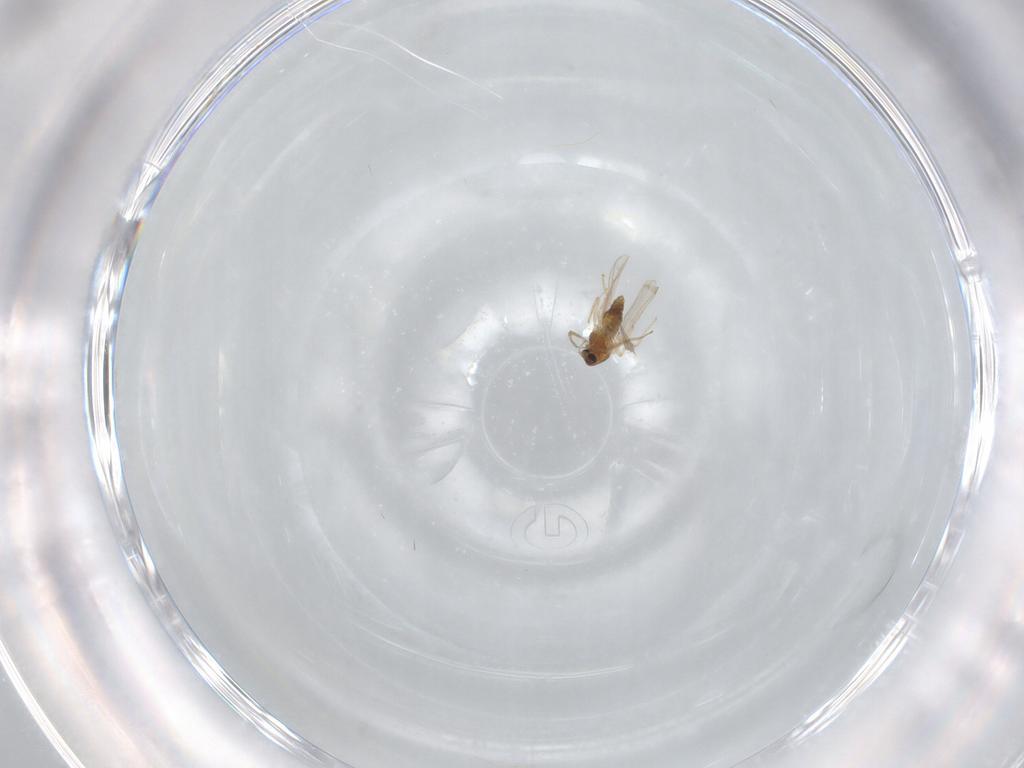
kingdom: Animalia
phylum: Arthropoda
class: Insecta
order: Diptera
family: Chironomidae
